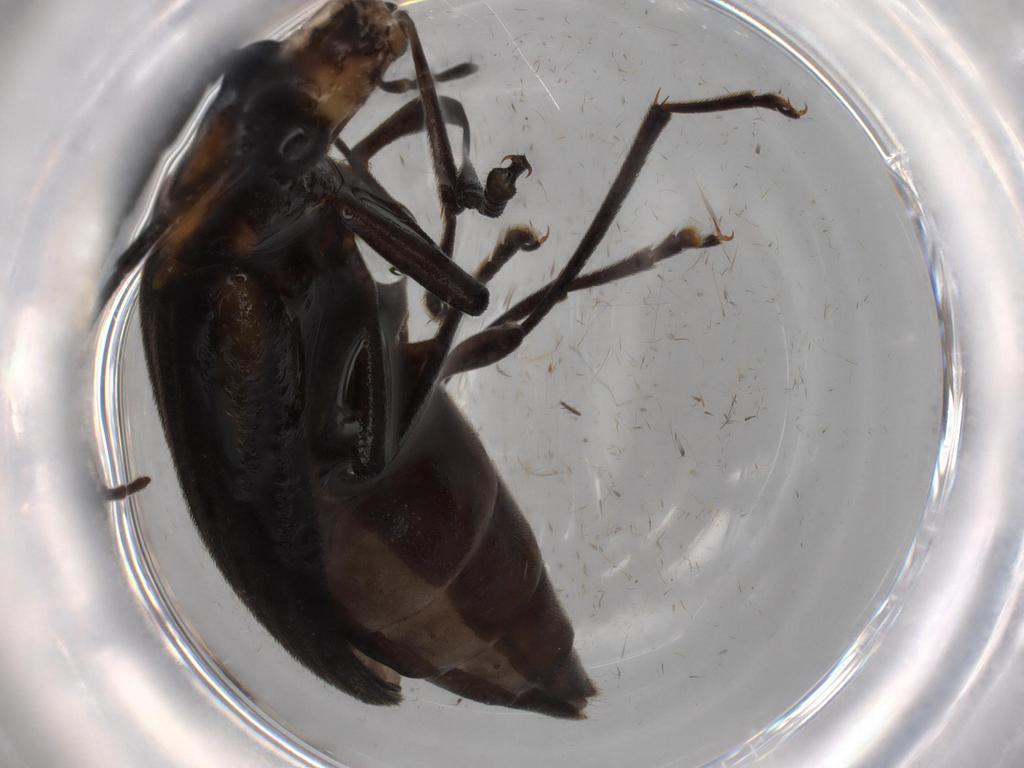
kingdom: Animalia
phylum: Arthropoda
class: Insecta
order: Coleoptera
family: Oedemeridae
